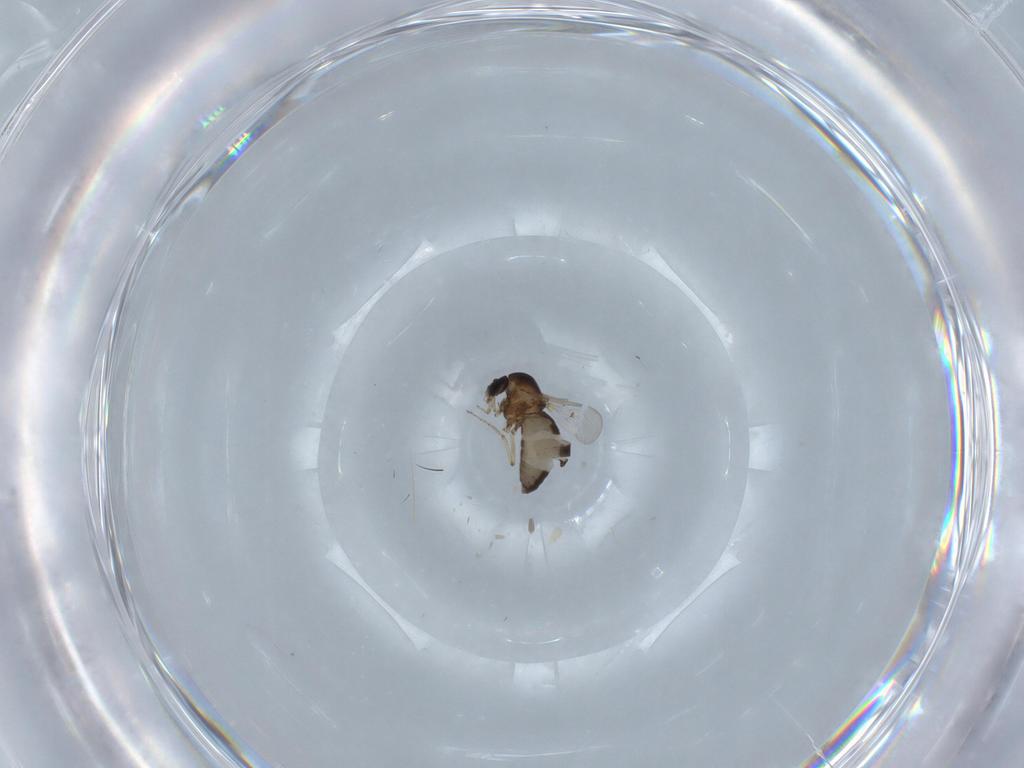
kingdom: Animalia
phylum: Arthropoda
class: Insecta
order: Diptera
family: Ceratopogonidae
